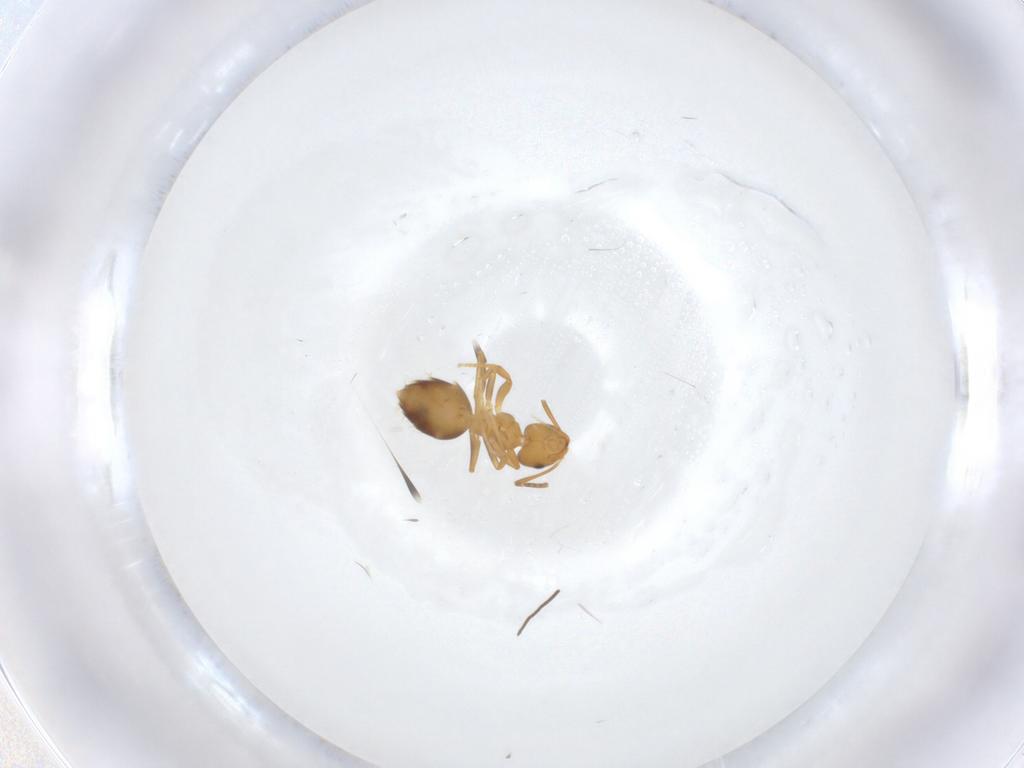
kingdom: Animalia
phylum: Arthropoda
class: Insecta
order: Hymenoptera
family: Formicidae
